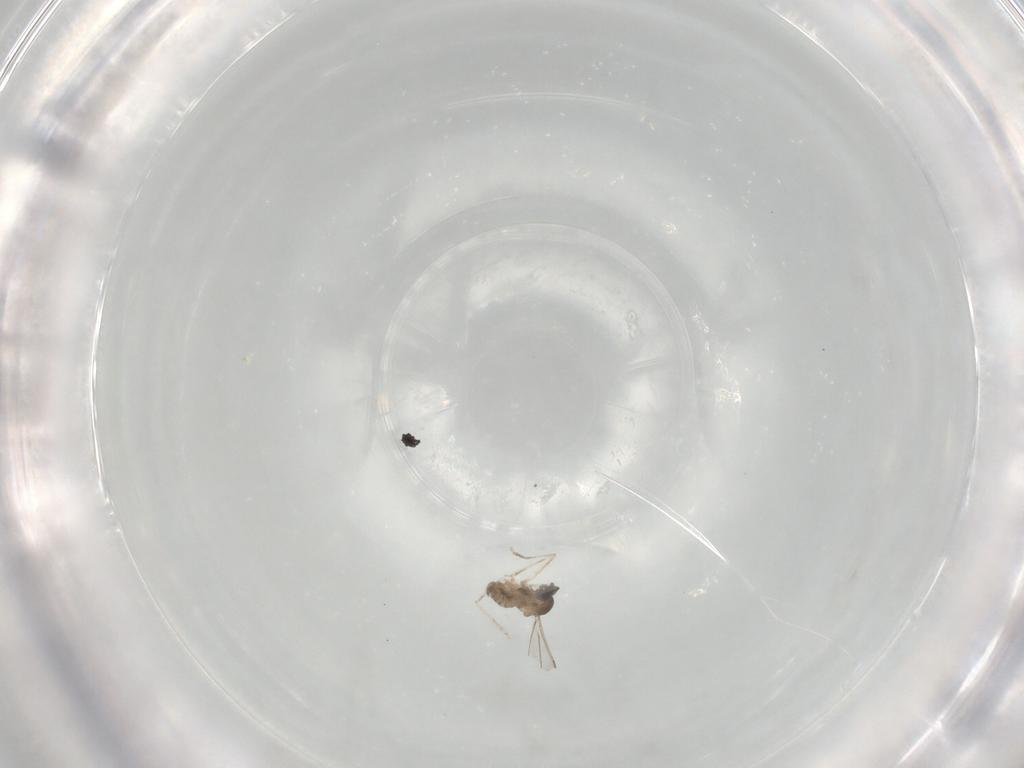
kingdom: Animalia
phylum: Arthropoda
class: Insecta
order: Diptera
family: Cecidomyiidae
